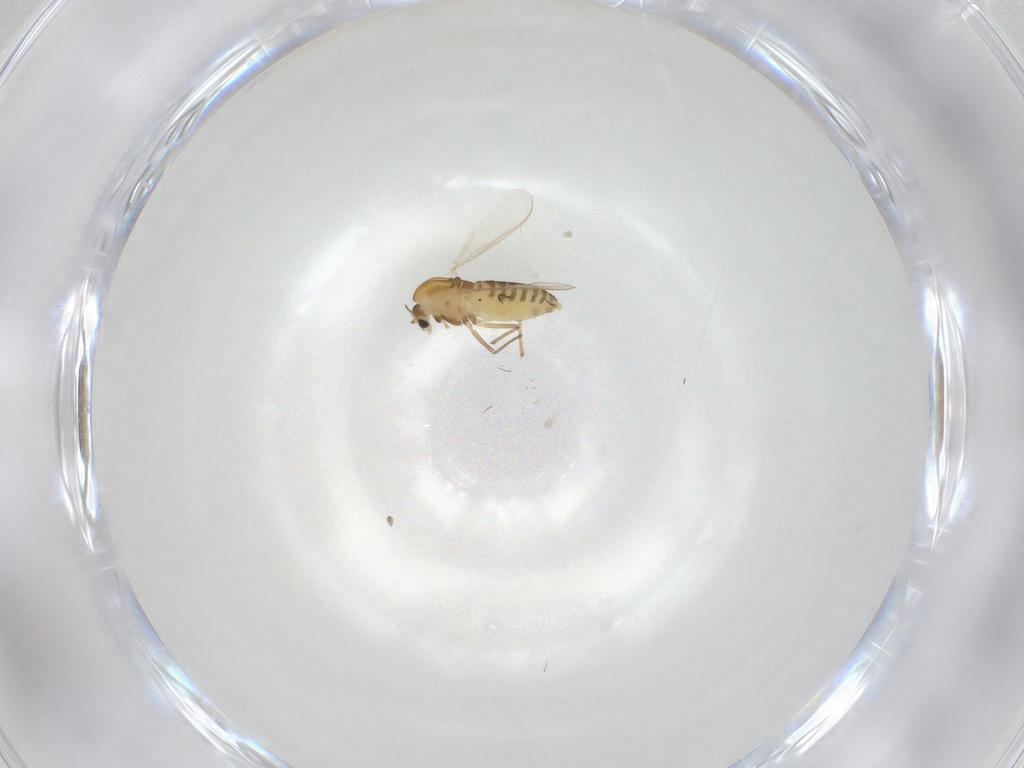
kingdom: Animalia
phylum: Arthropoda
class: Insecta
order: Diptera
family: Chironomidae
